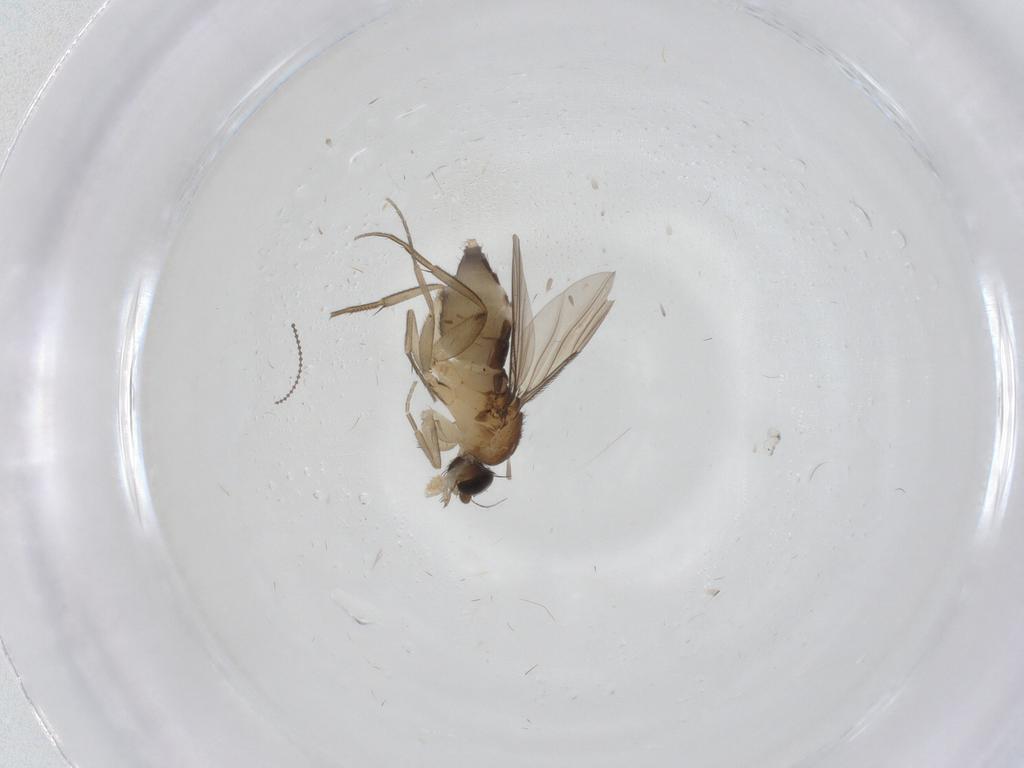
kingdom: Animalia
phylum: Arthropoda
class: Insecta
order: Diptera
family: Phoridae
